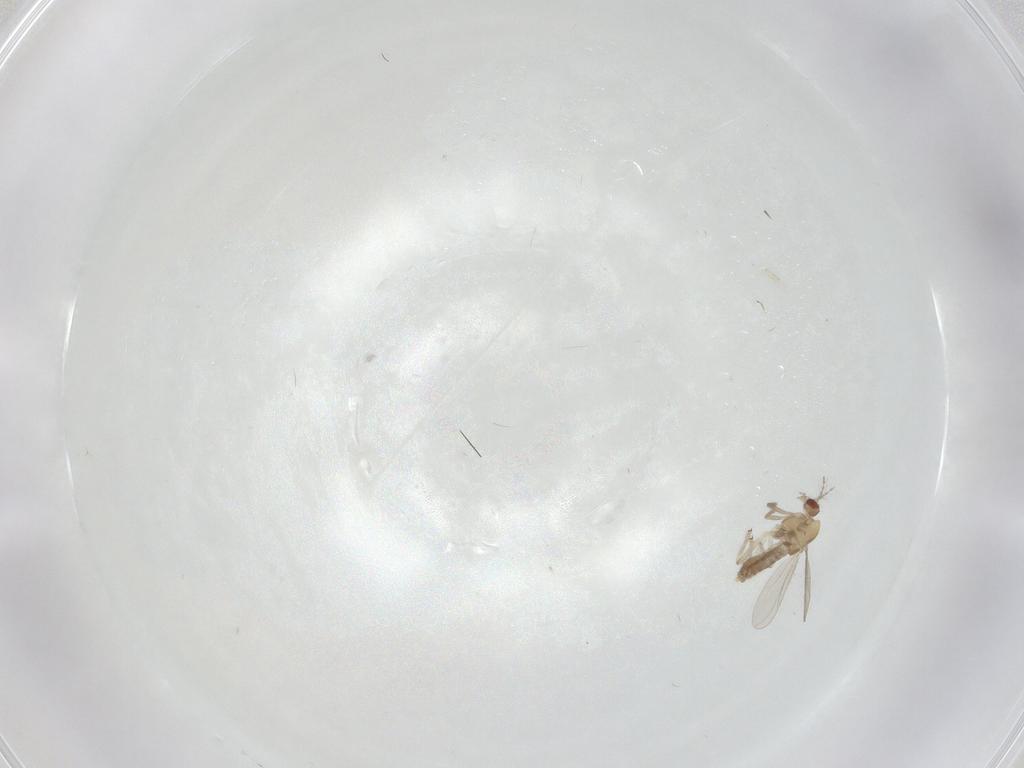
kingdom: Animalia
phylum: Arthropoda
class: Insecta
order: Diptera
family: Chironomidae
